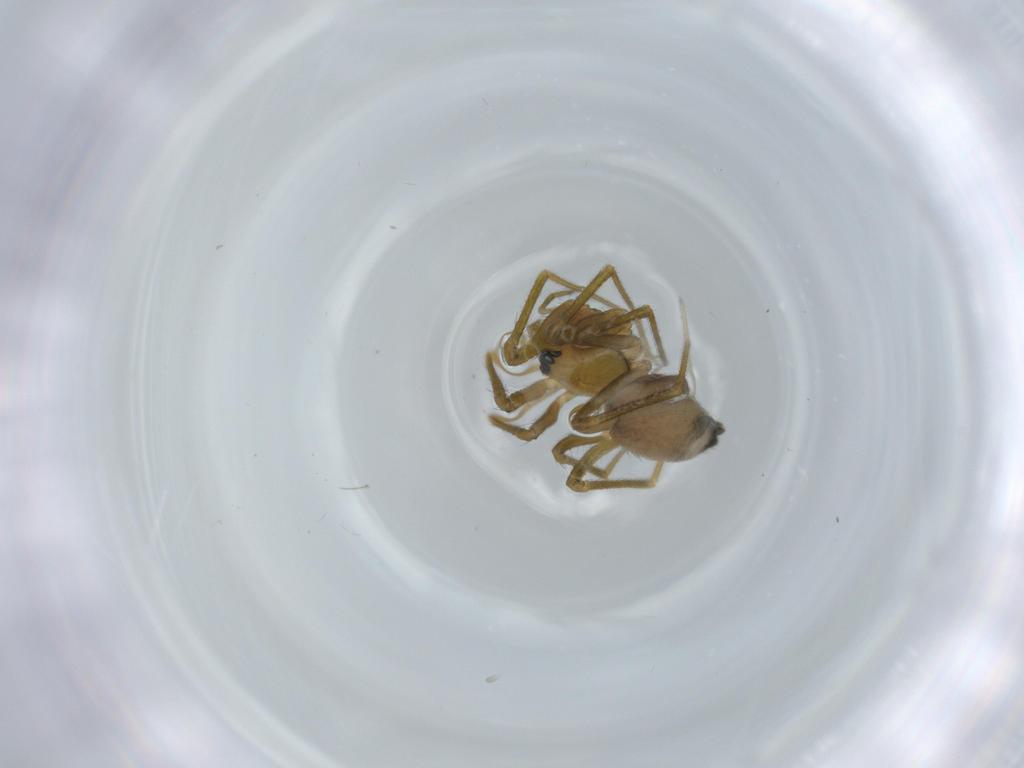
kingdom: Animalia
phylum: Arthropoda
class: Arachnida
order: Araneae
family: Linyphiidae
